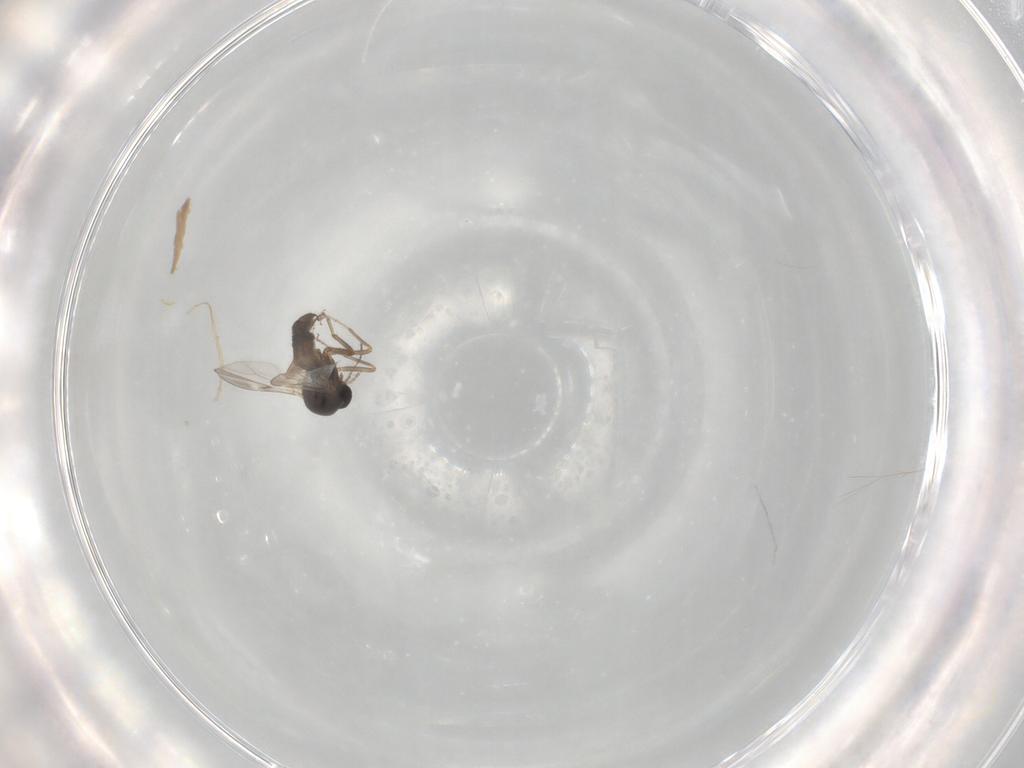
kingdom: Animalia
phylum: Arthropoda
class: Insecta
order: Diptera
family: Ceratopogonidae
